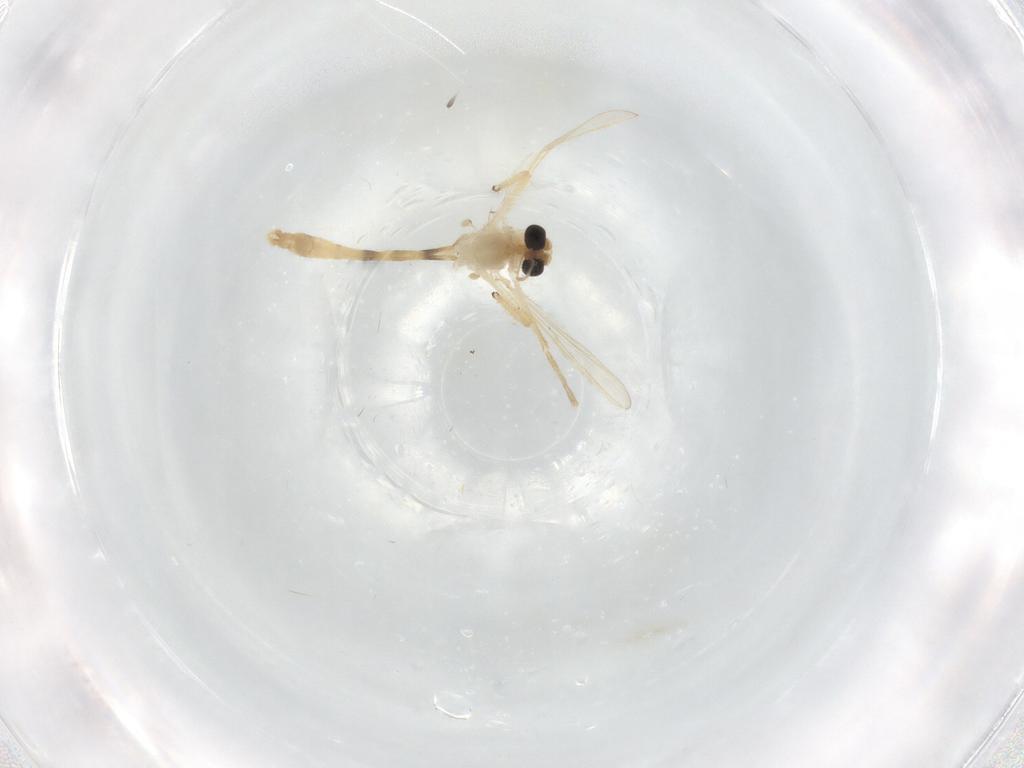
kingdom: Animalia
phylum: Arthropoda
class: Insecta
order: Diptera
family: Chironomidae
